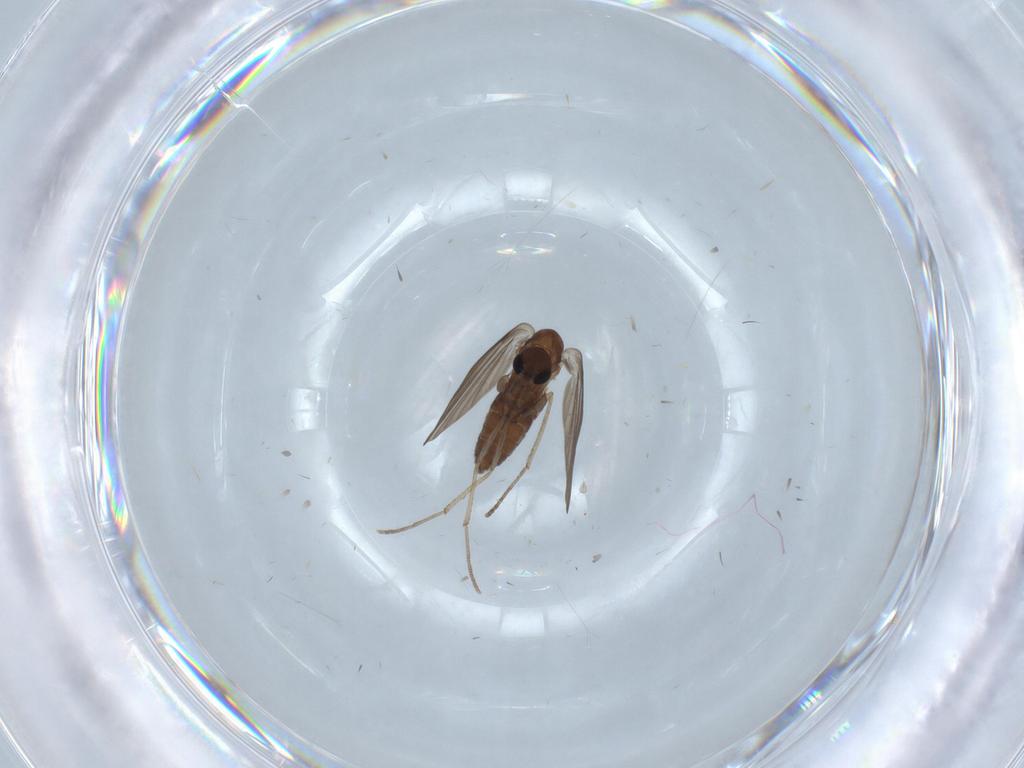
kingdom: Animalia
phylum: Arthropoda
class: Insecta
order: Diptera
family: Psychodidae
